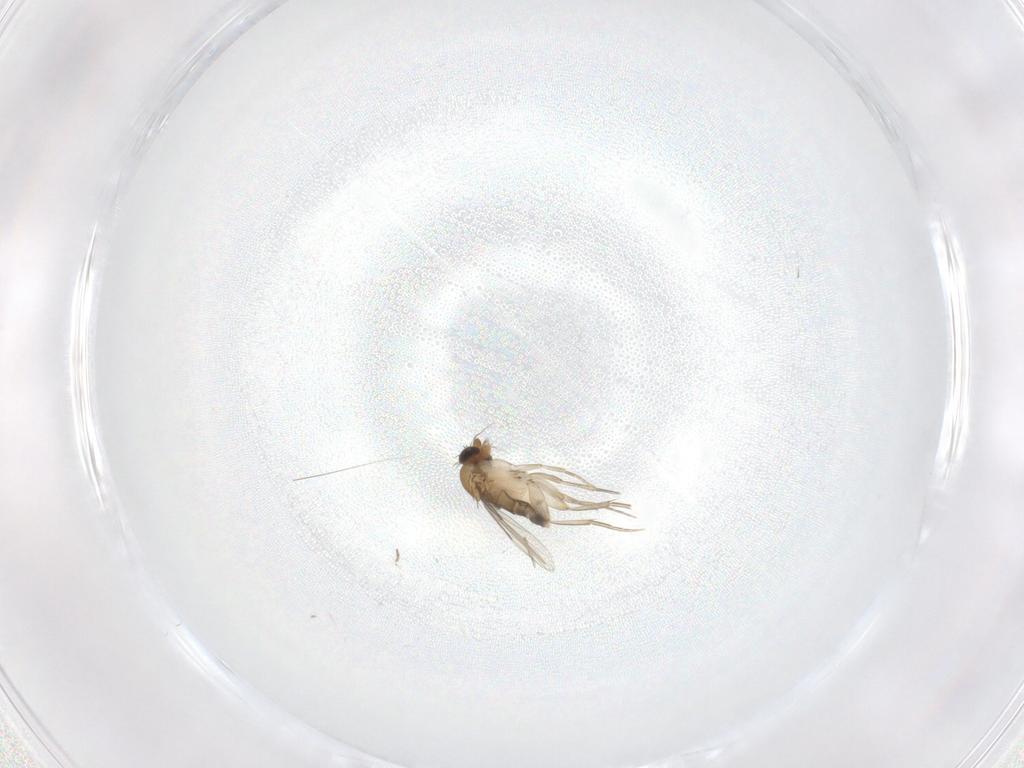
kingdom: Animalia
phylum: Arthropoda
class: Insecta
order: Diptera
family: Phoridae
